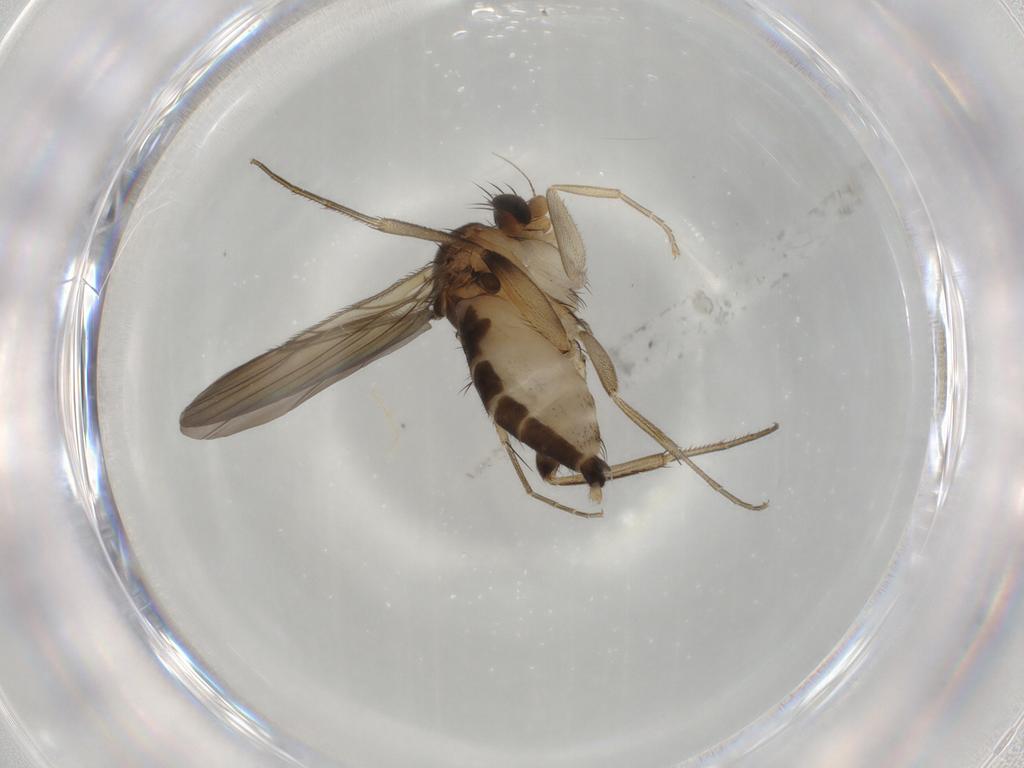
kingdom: Animalia
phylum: Arthropoda
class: Insecta
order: Diptera
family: Phoridae
